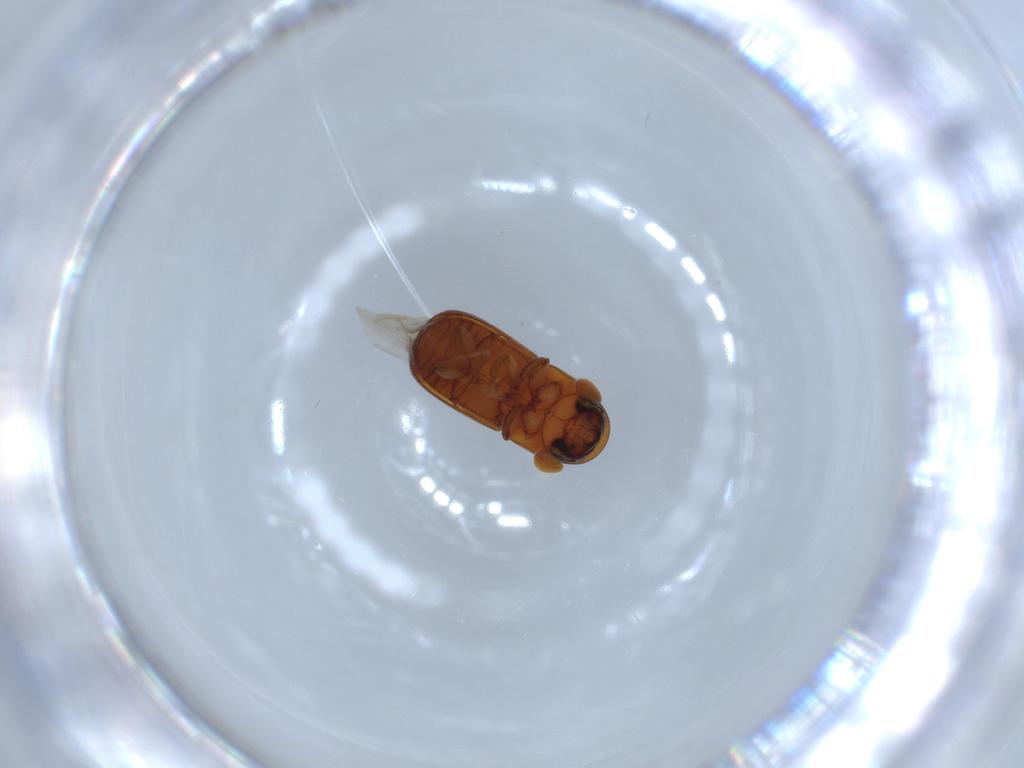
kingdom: Animalia
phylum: Arthropoda
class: Insecta
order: Coleoptera
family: Curculionidae
